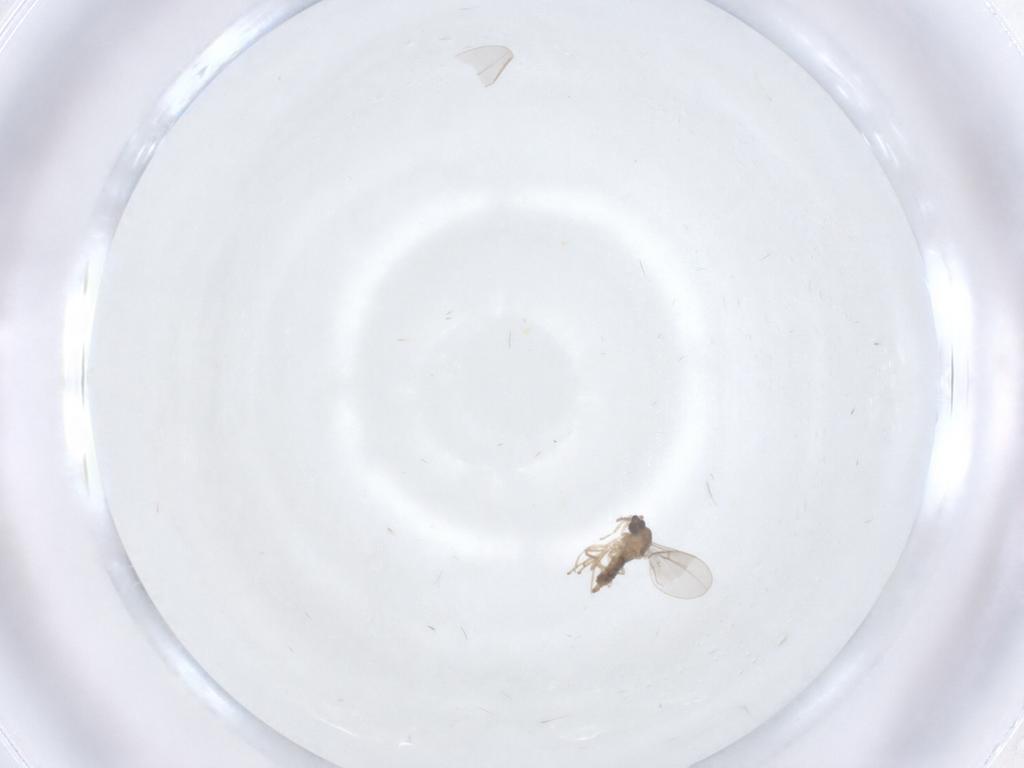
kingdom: Animalia
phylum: Arthropoda
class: Insecta
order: Diptera
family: Cecidomyiidae
